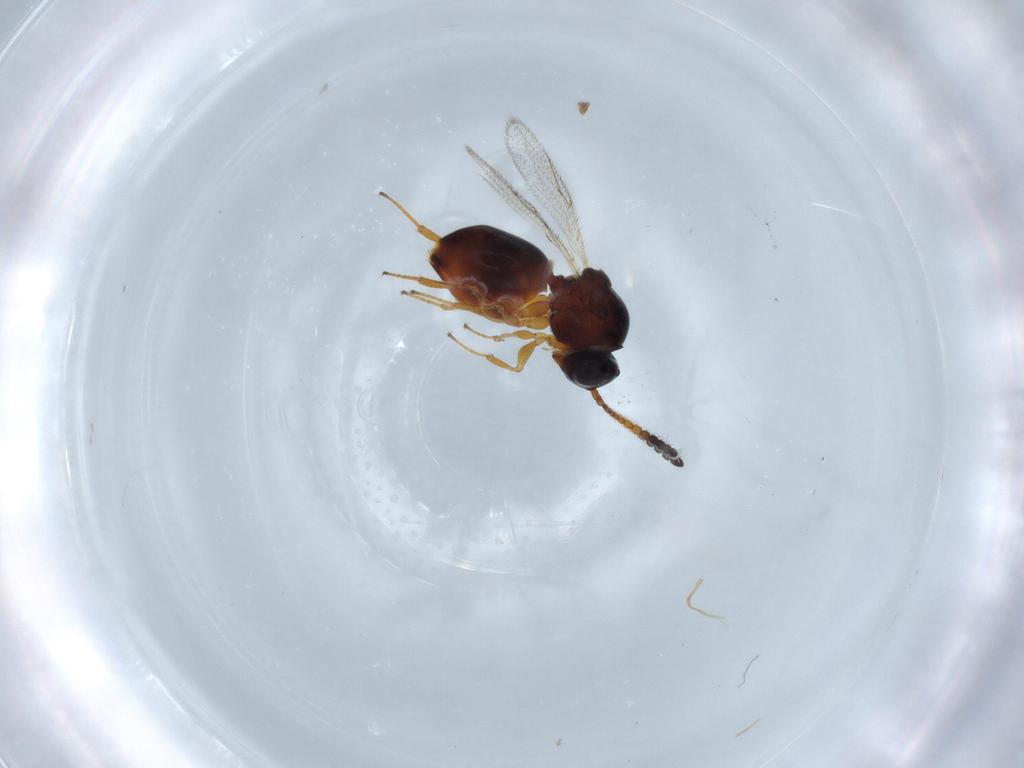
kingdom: Animalia
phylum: Arthropoda
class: Insecta
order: Hymenoptera
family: Figitidae
